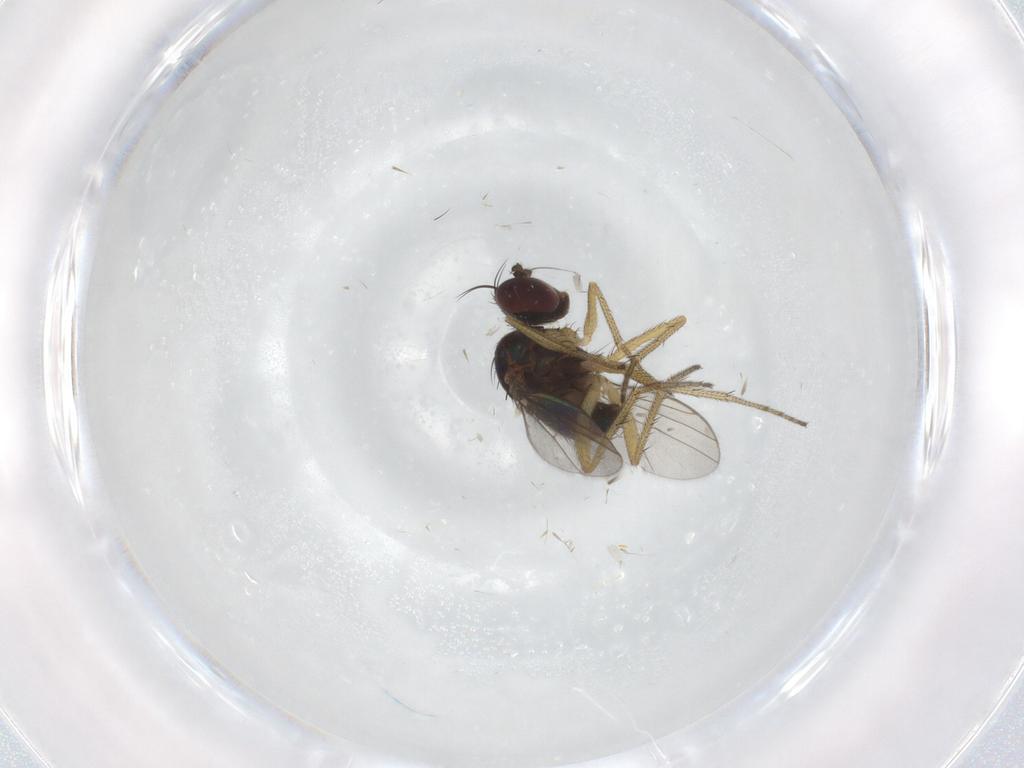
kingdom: Animalia
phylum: Arthropoda
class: Insecta
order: Diptera
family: Dolichopodidae
